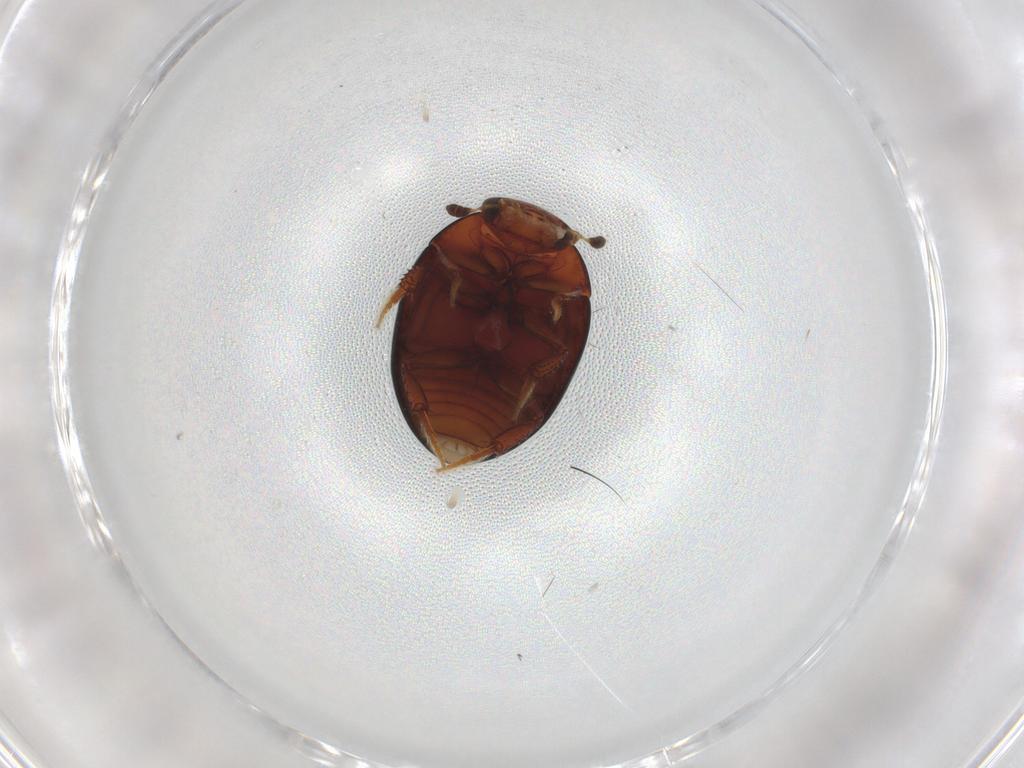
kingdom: Animalia
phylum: Arthropoda
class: Insecta
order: Coleoptera
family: Hydrophilidae
